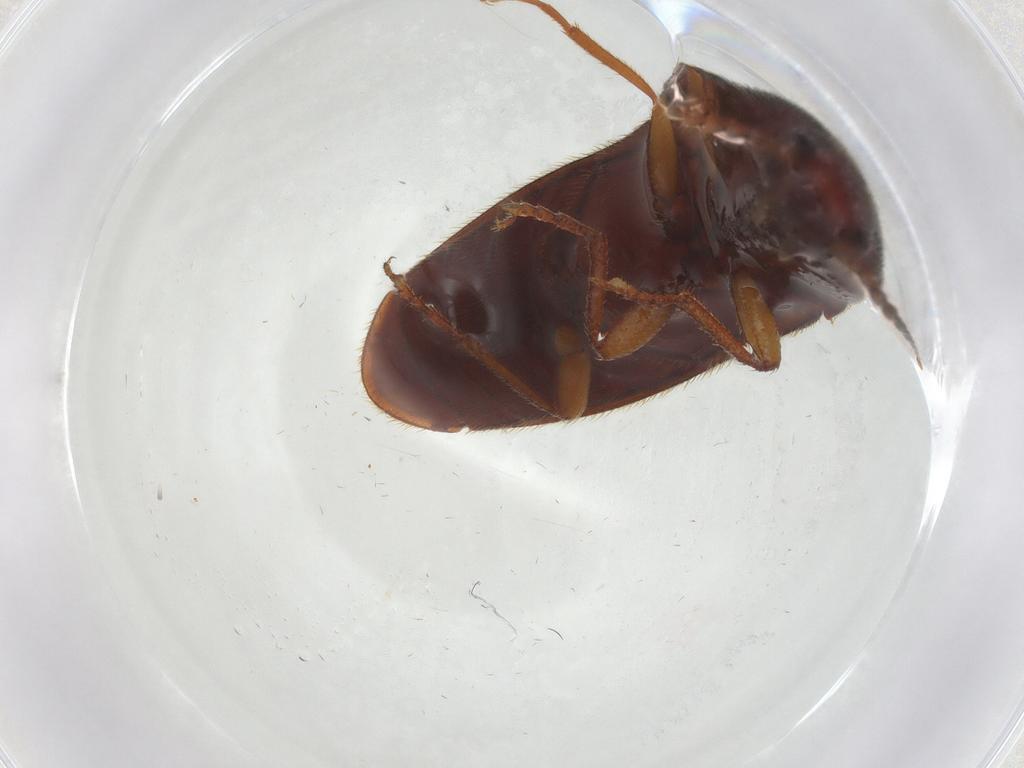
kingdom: Animalia
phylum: Arthropoda
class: Insecta
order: Coleoptera
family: Elateridae
